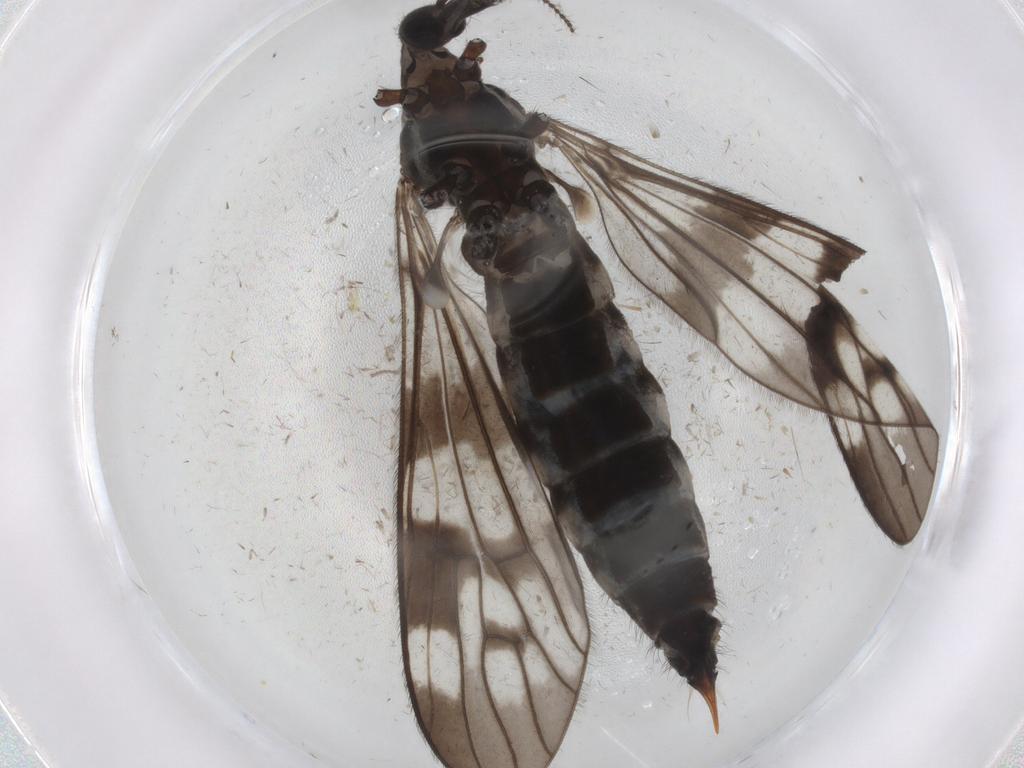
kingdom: Animalia
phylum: Arthropoda
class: Insecta
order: Diptera
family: Limoniidae
